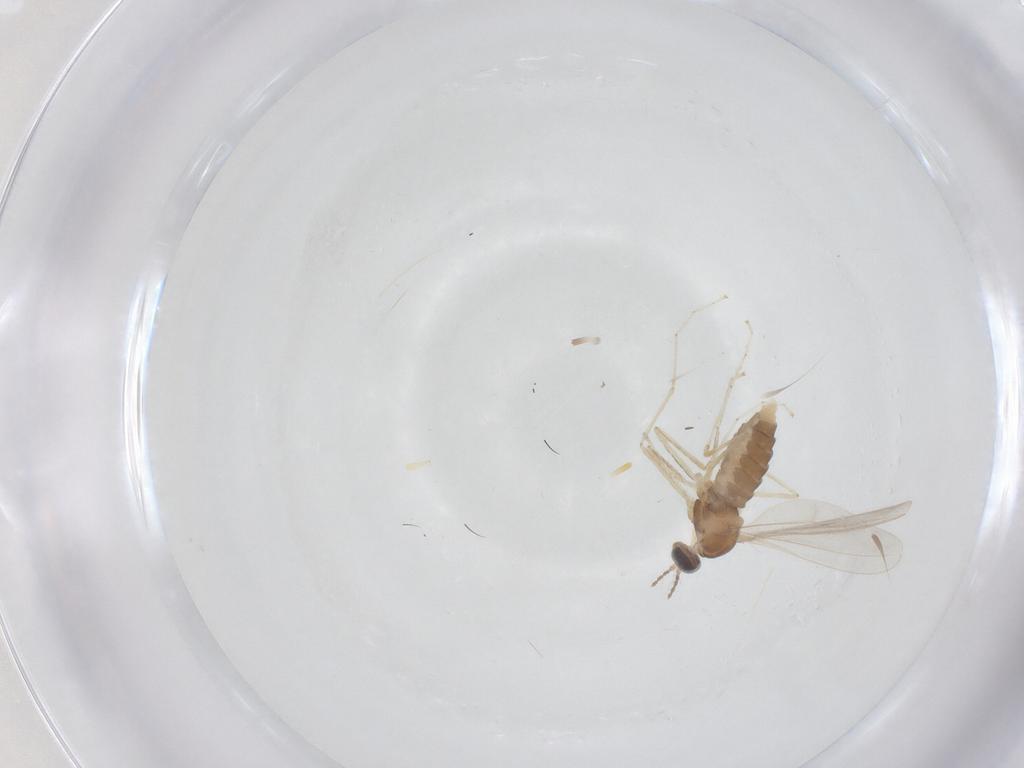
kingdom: Animalia
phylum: Arthropoda
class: Insecta
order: Diptera
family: Cecidomyiidae
